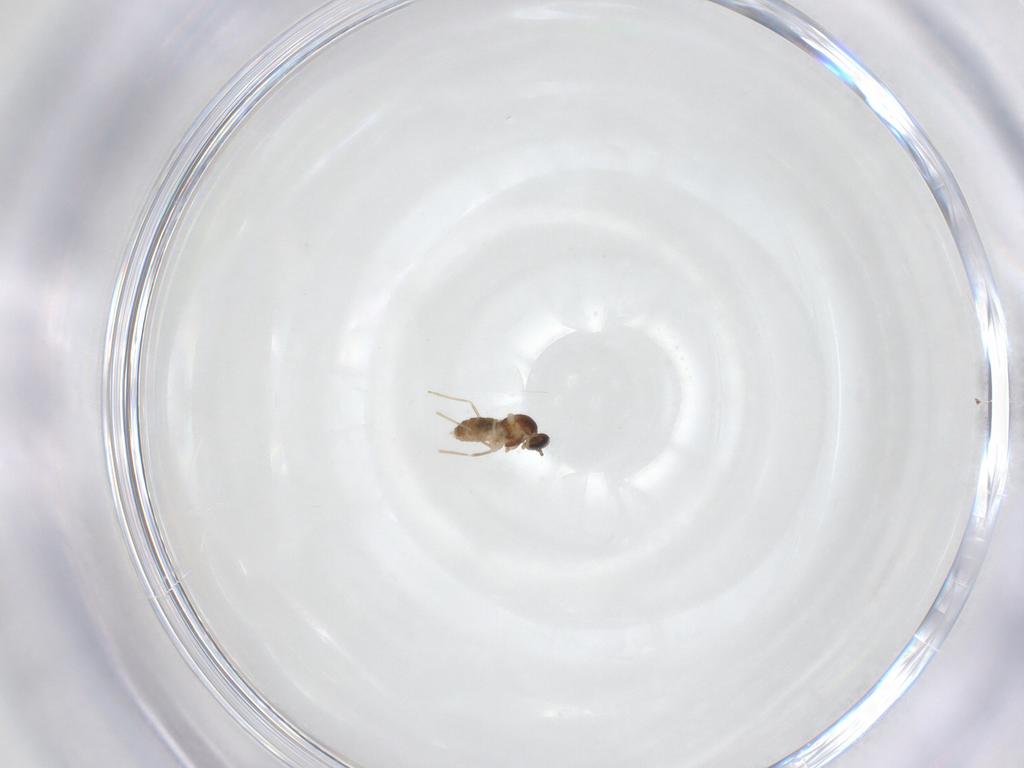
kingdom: Animalia
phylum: Arthropoda
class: Insecta
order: Diptera
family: Cecidomyiidae
